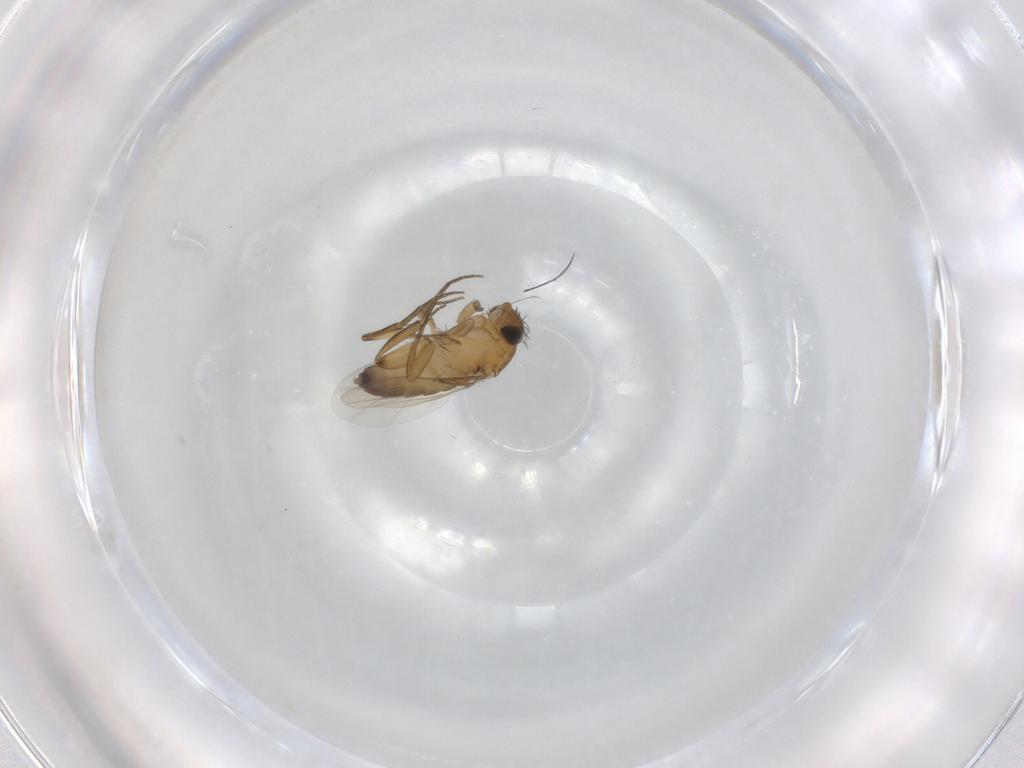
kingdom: Animalia
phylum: Arthropoda
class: Insecta
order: Diptera
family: Phoridae
